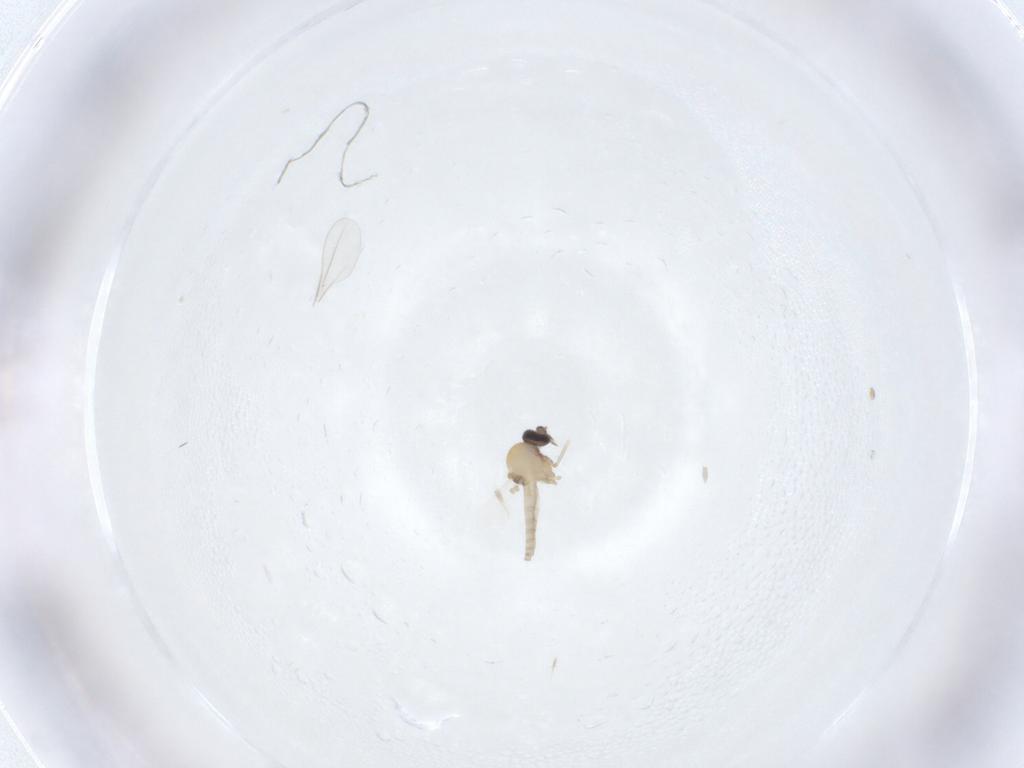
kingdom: Animalia
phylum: Arthropoda
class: Insecta
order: Diptera
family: Ceratopogonidae
